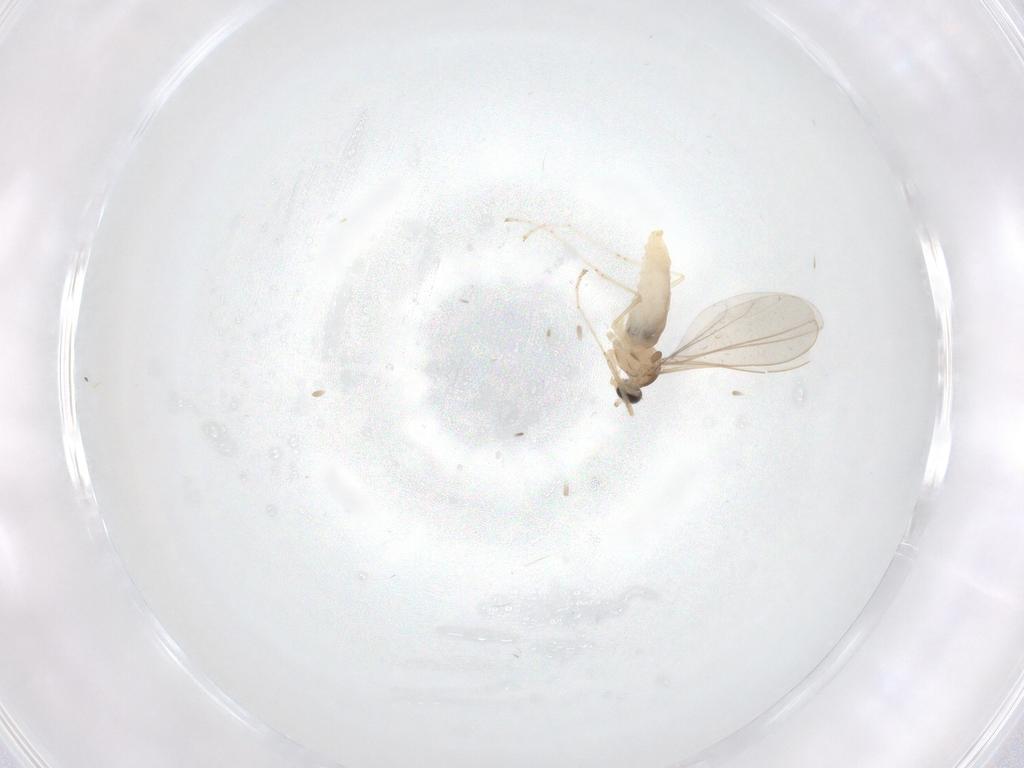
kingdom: Animalia
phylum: Arthropoda
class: Insecta
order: Diptera
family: Cecidomyiidae
